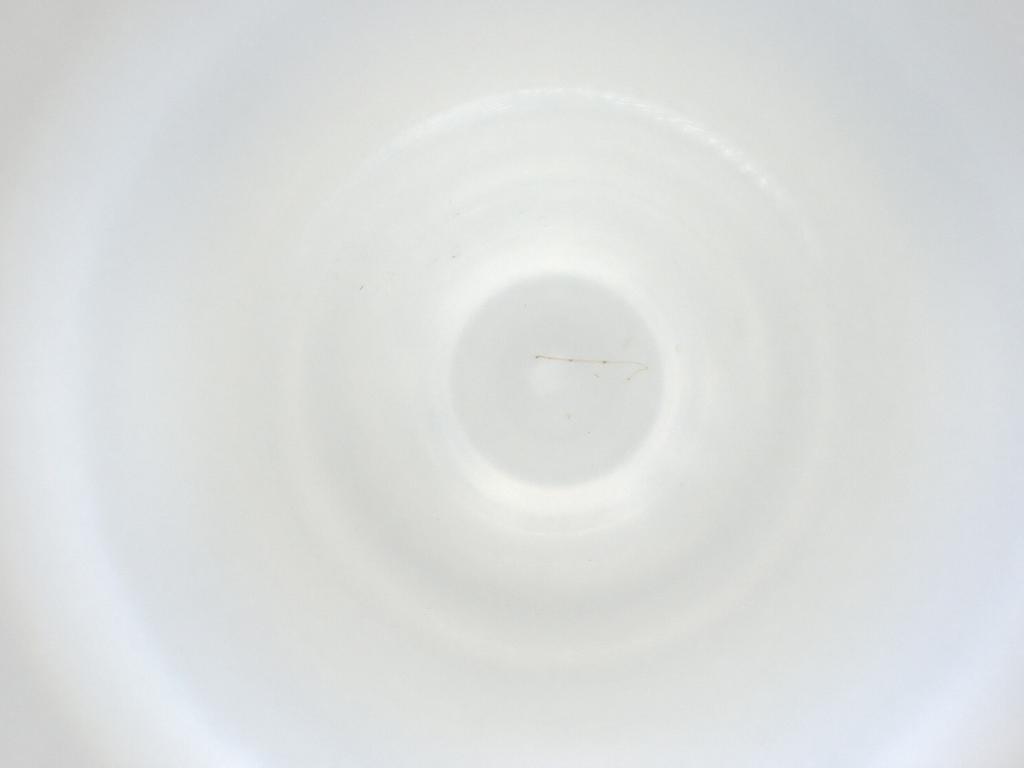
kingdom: Animalia
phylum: Arthropoda
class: Insecta
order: Diptera
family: Cecidomyiidae
